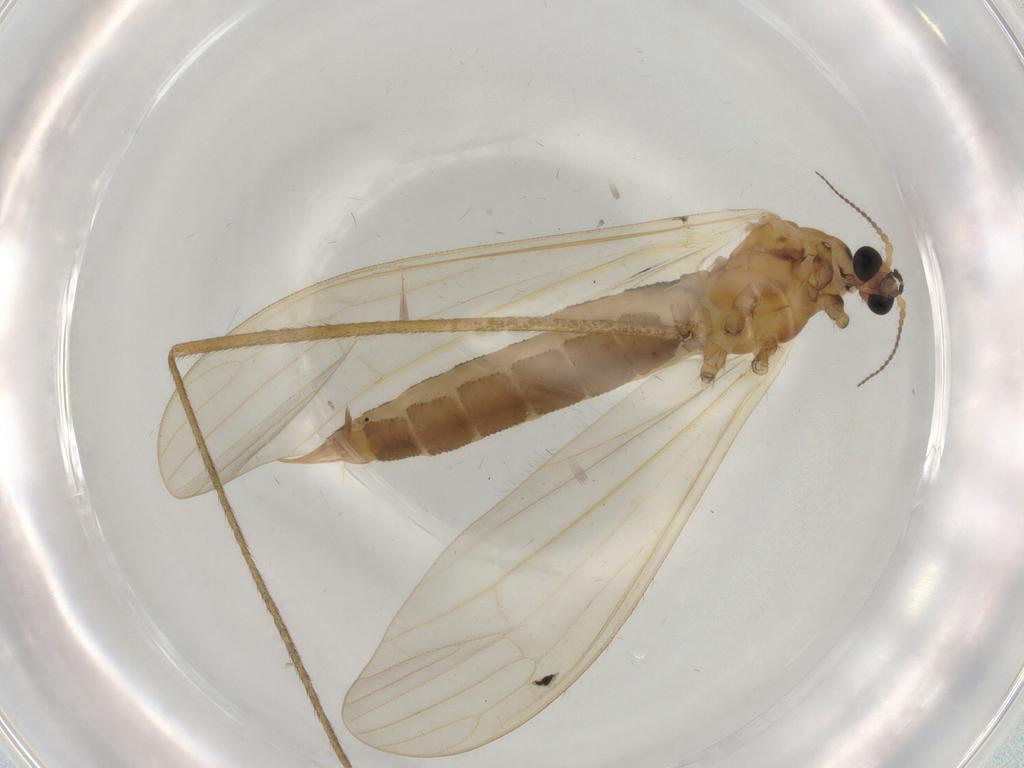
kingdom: Animalia
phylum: Arthropoda
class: Insecta
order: Diptera
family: Limoniidae
